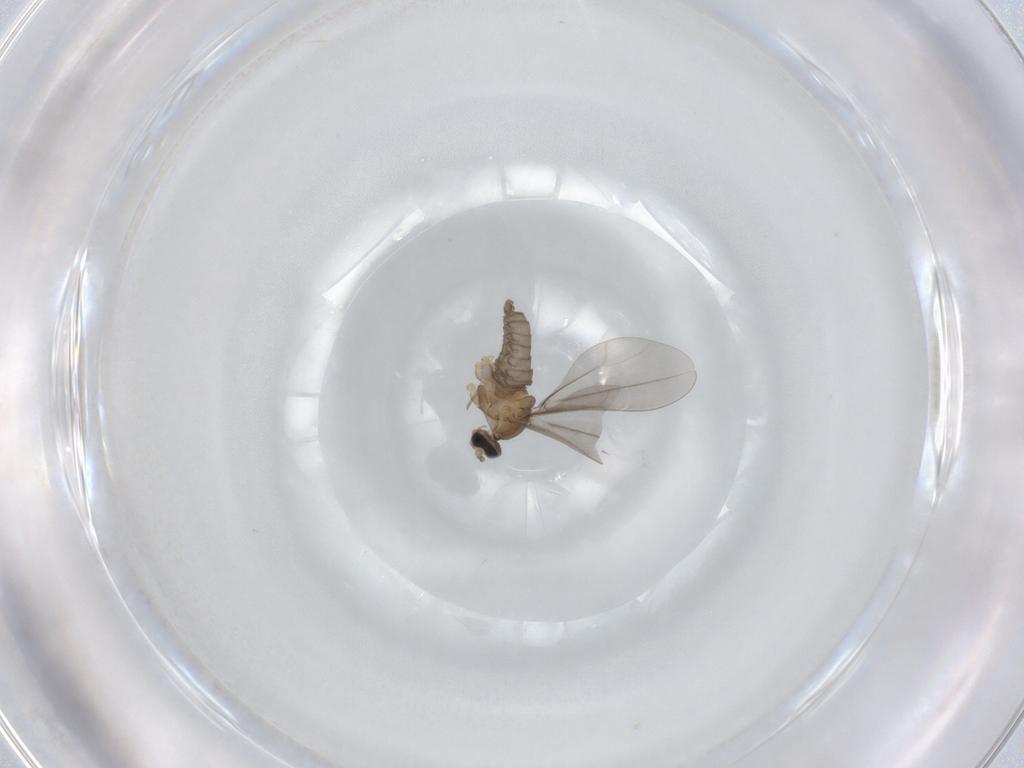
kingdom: Animalia
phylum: Arthropoda
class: Insecta
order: Diptera
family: Cecidomyiidae
